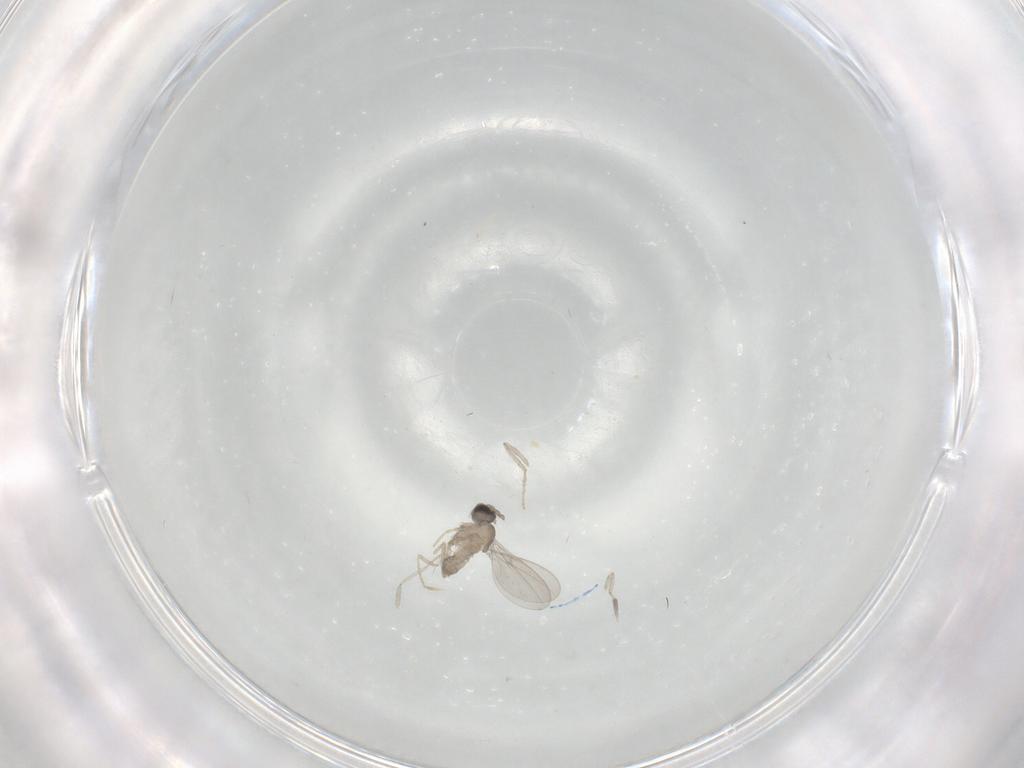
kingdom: Animalia
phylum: Arthropoda
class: Insecta
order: Diptera
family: Cecidomyiidae
